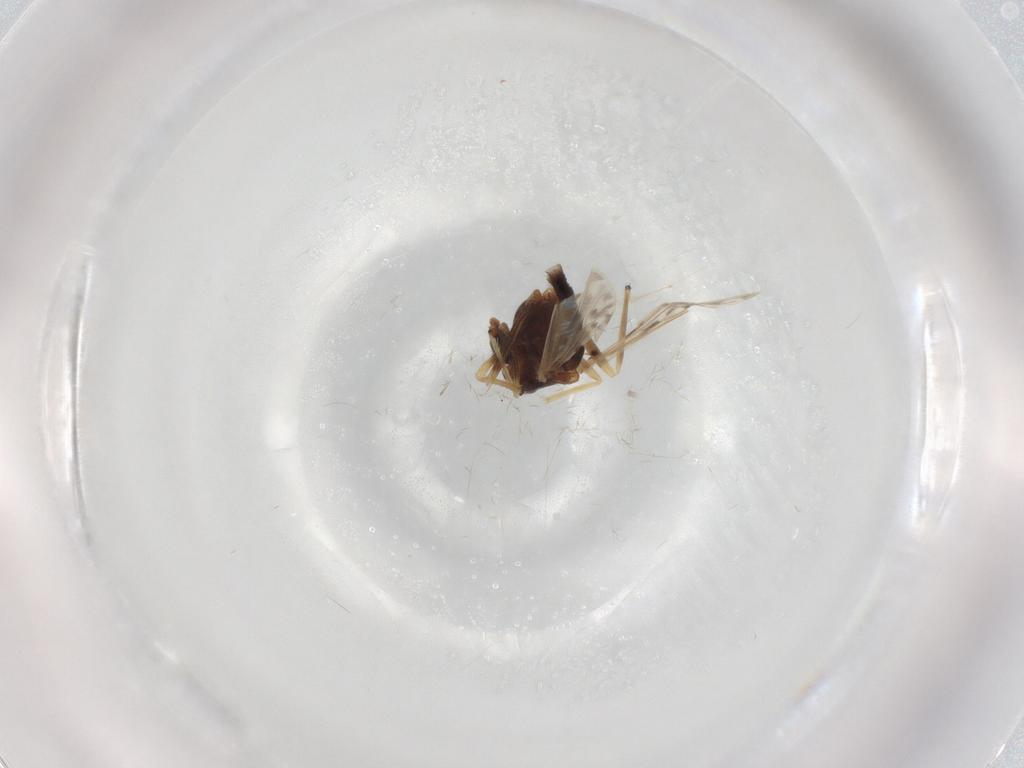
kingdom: Animalia
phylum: Arthropoda
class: Insecta
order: Diptera
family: Chironomidae
